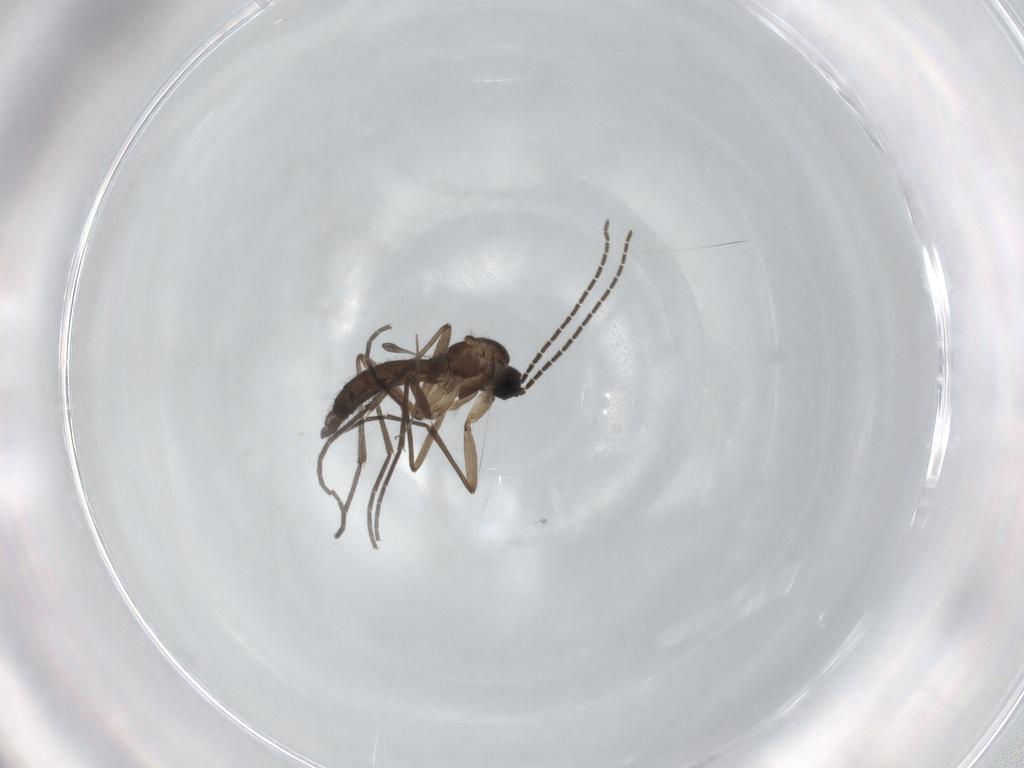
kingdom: Animalia
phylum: Arthropoda
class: Insecta
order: Diptera
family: Sciaridae
